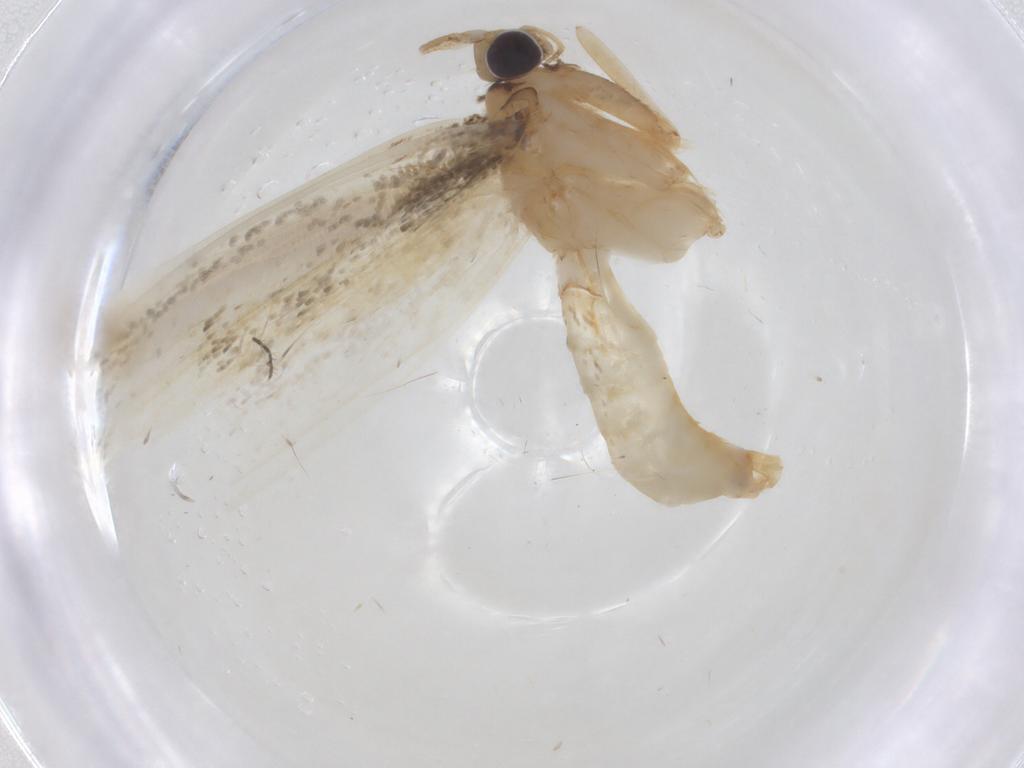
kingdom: Animalia
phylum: Arthropoda
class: Insecta
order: Lepidoptera
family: Tineidae
